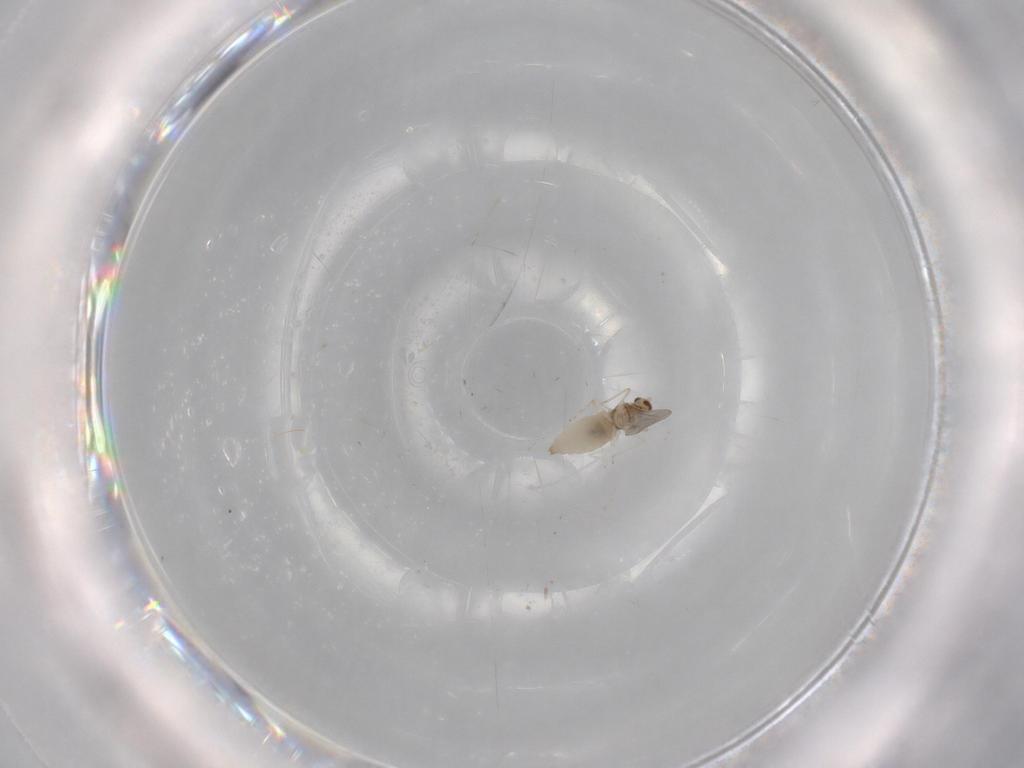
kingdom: Animalia
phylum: Arthropoda
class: Insecta
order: Diptera
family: Cecidomyiidae
